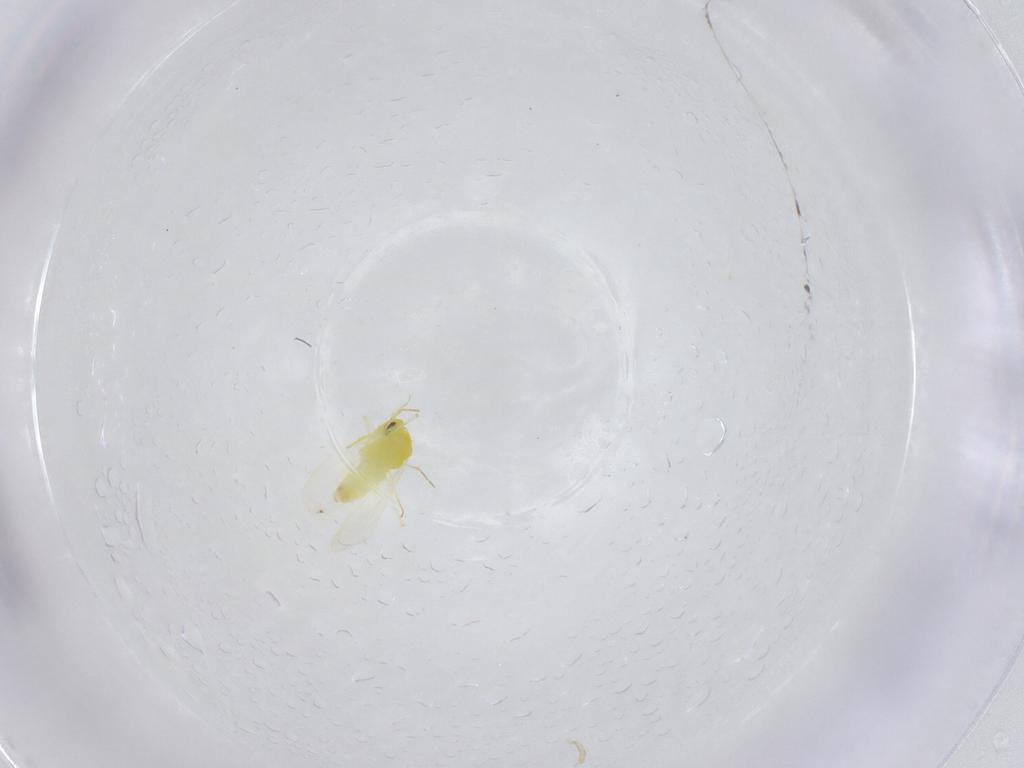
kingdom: Animalia
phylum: Arthropoda
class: Insecta
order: Hemiptera
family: Aleyrodidae
